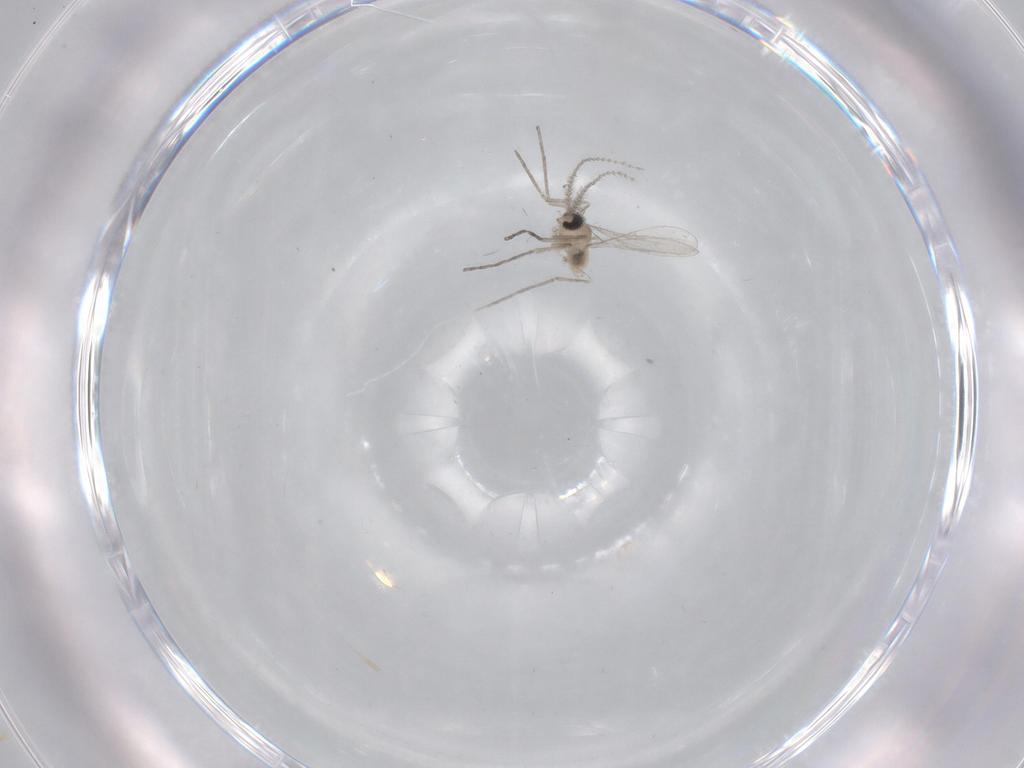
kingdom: Animalia
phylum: Arthropoda
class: Insecta
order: Diptera
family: Cecidomyiidae
